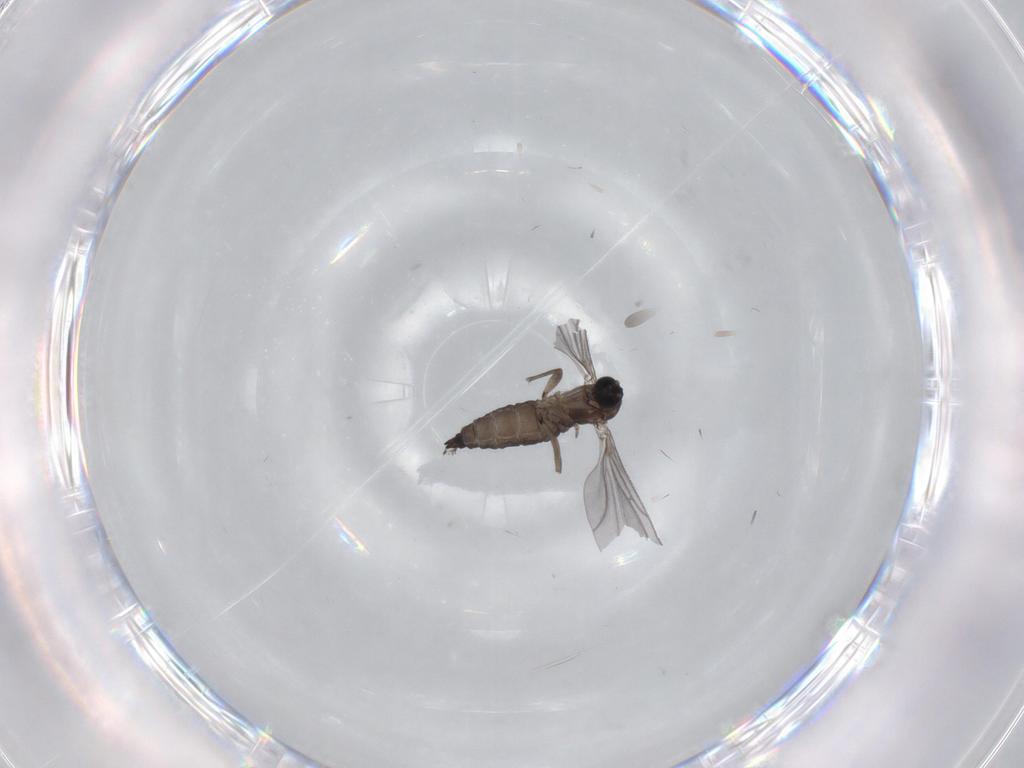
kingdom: Animalia
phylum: Arthropoda
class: Insecta
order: Diptera
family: Sciaridae
